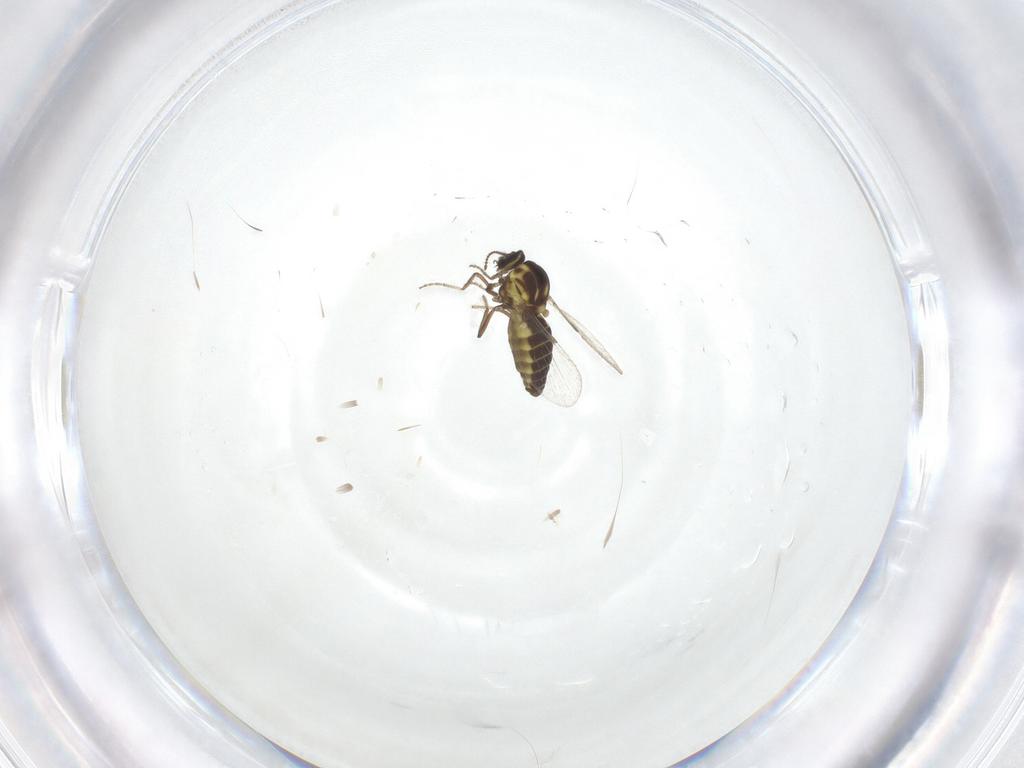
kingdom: Animalia
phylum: Arthropoda
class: Insecta
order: Diptera
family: Ceratopogonidae
